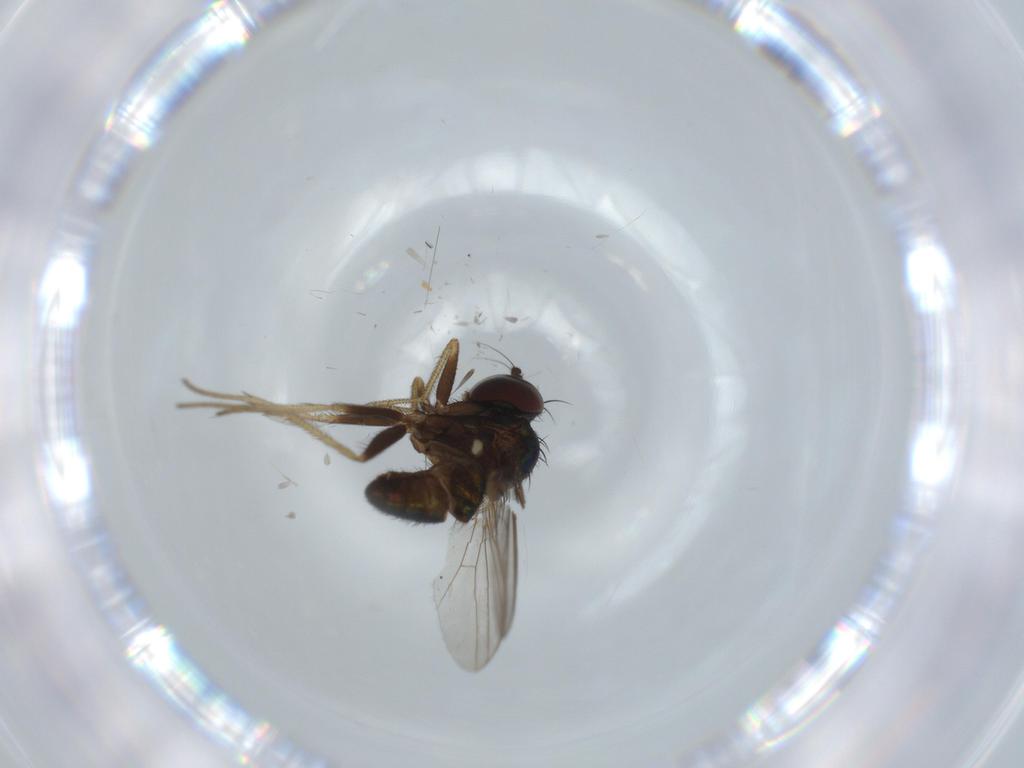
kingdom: Animalia
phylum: Arthropoda
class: Insecta
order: Diptera
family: Dolichopodidae
